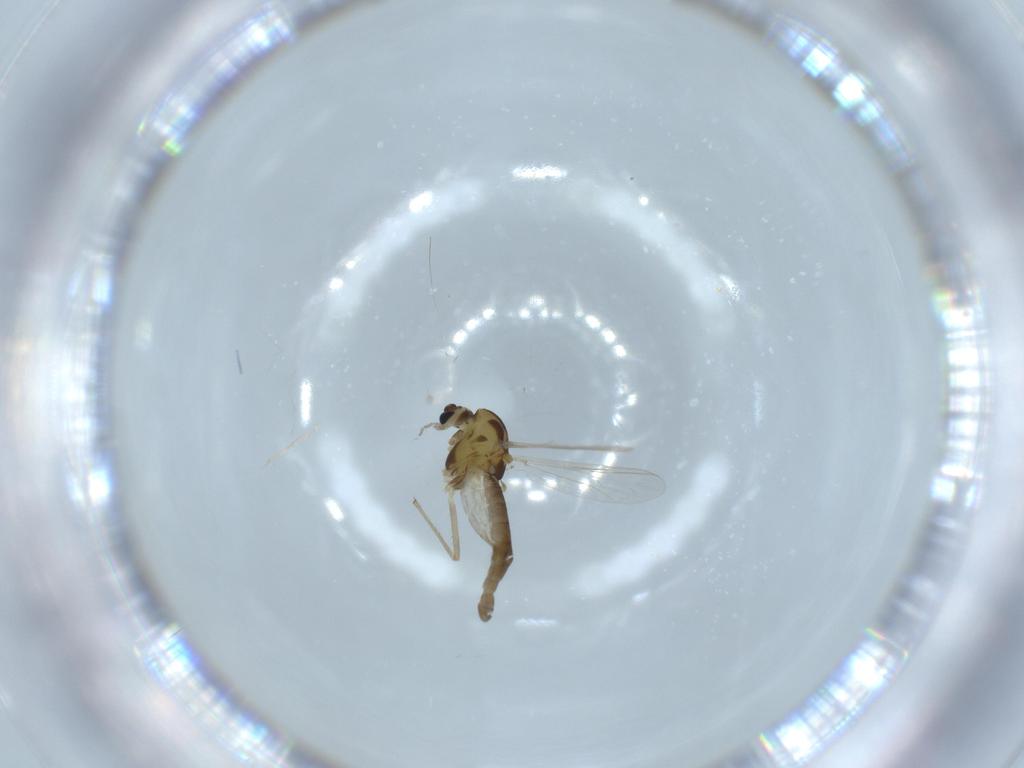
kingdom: Animalia
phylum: Arthropoda
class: Insecta
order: Diptera
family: Chironomidae
